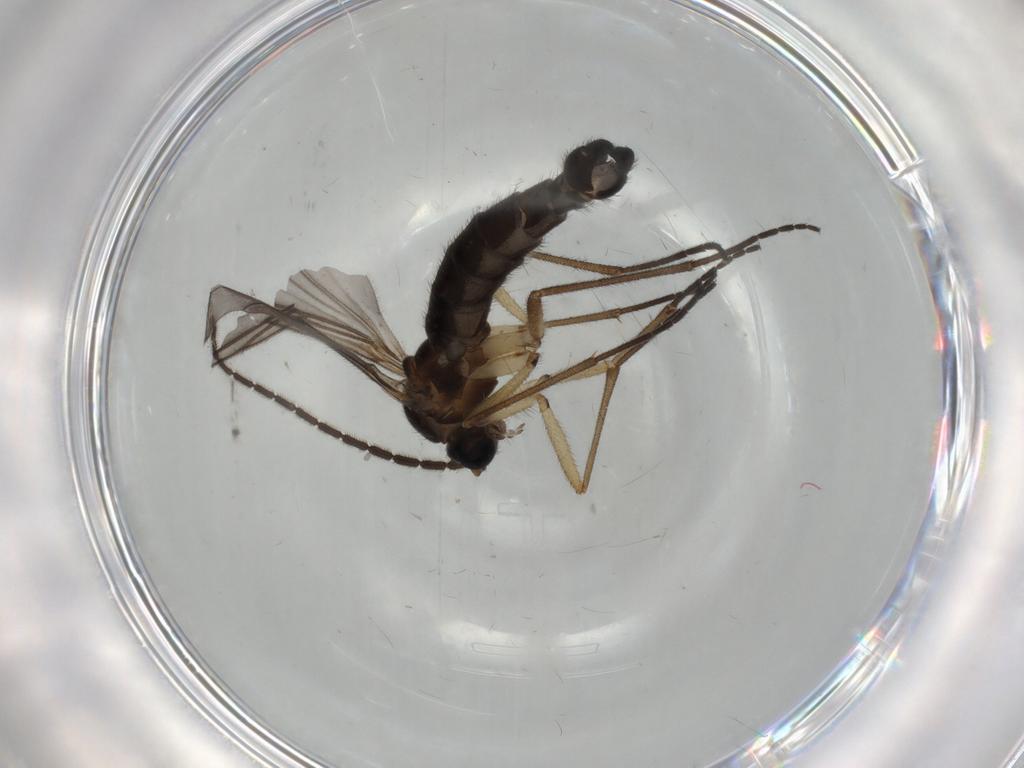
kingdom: Animalia
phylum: Arthropoda
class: Insecta
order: Diptera
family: Sciaridae
